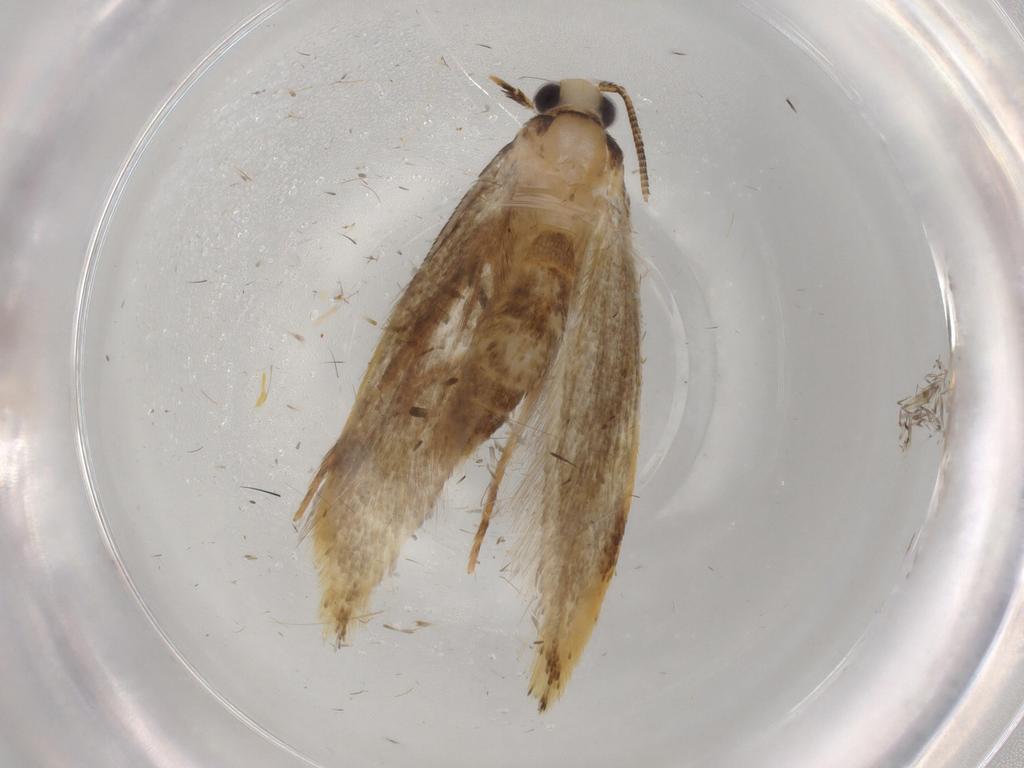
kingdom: Animalia
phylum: Arthropoda
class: Insecta
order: Lepidoptera
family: Tineidae
